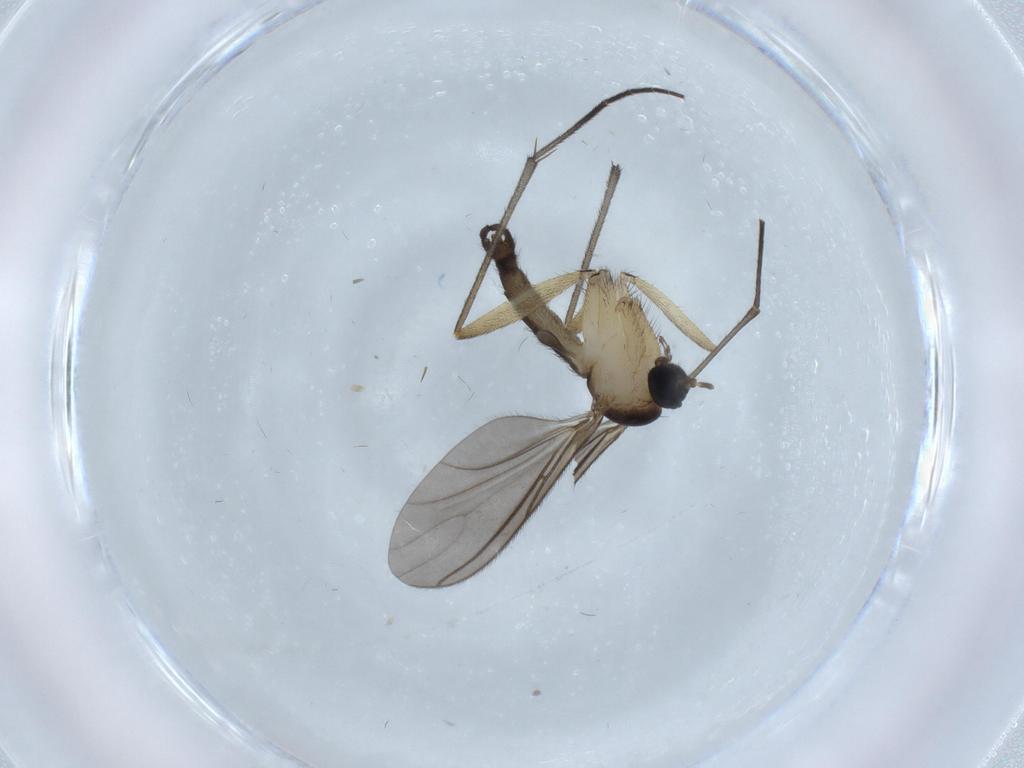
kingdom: Animalia
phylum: Arthropoda
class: Insecta
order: Diptera
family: Sciaridae
